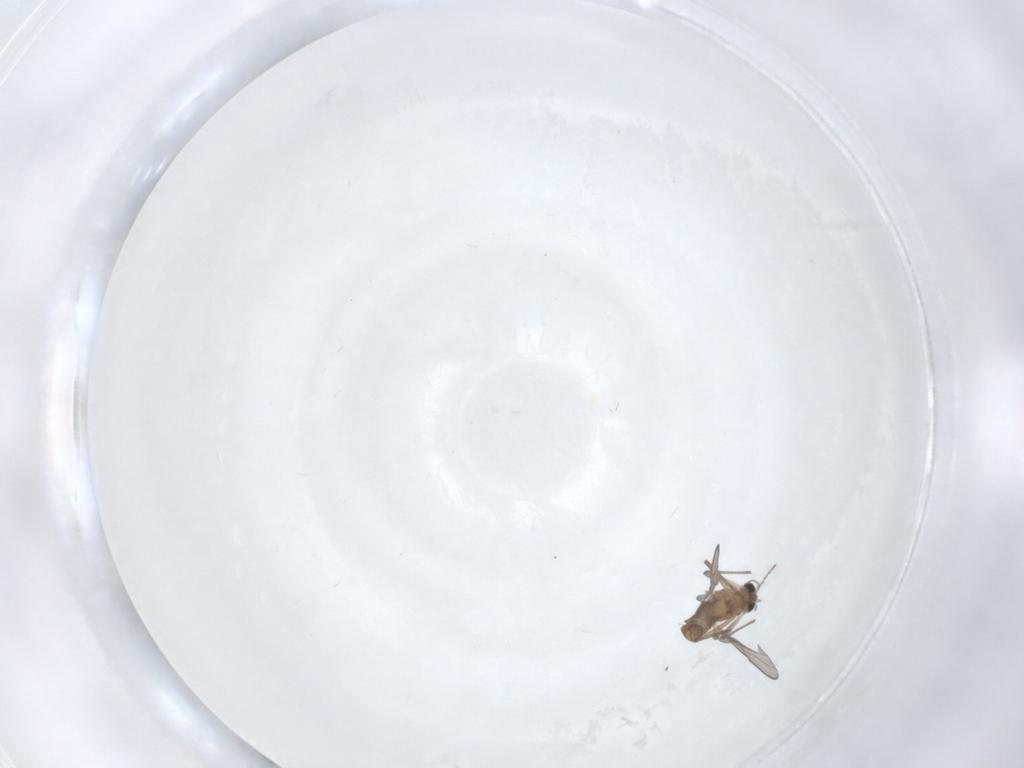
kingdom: Animalia
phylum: Arthropoda
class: Insecta
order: Diptera
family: Chironomidae
